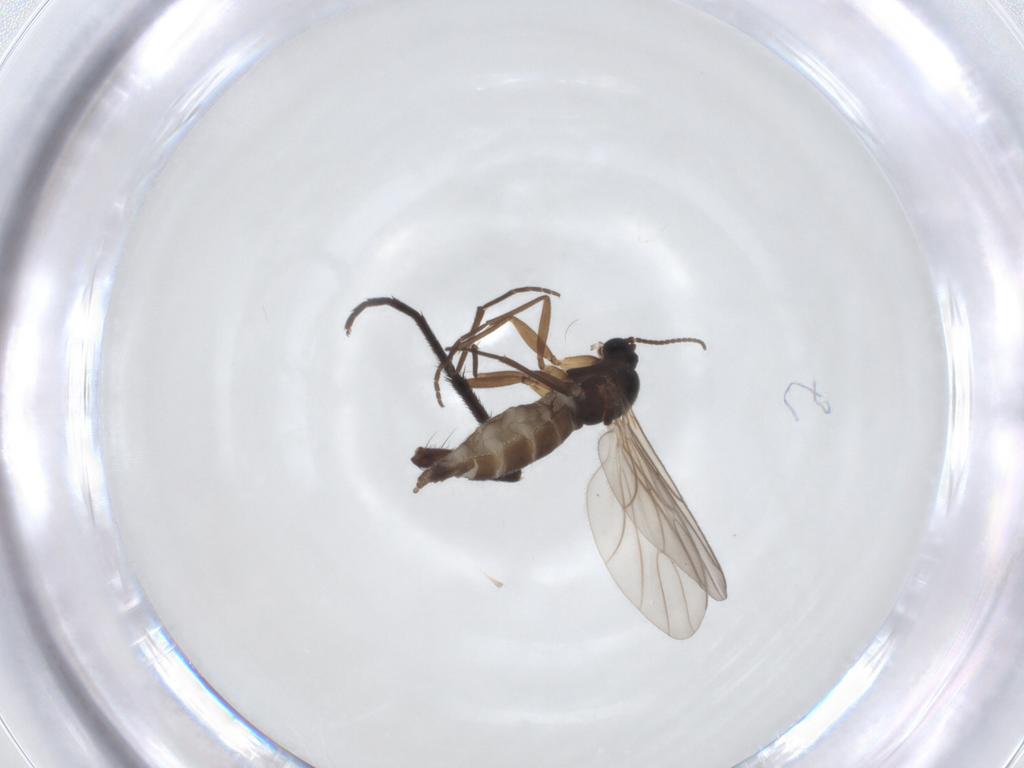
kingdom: Animalia
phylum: Arthropoda
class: Insecta
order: Diptera
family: Sciaridae
